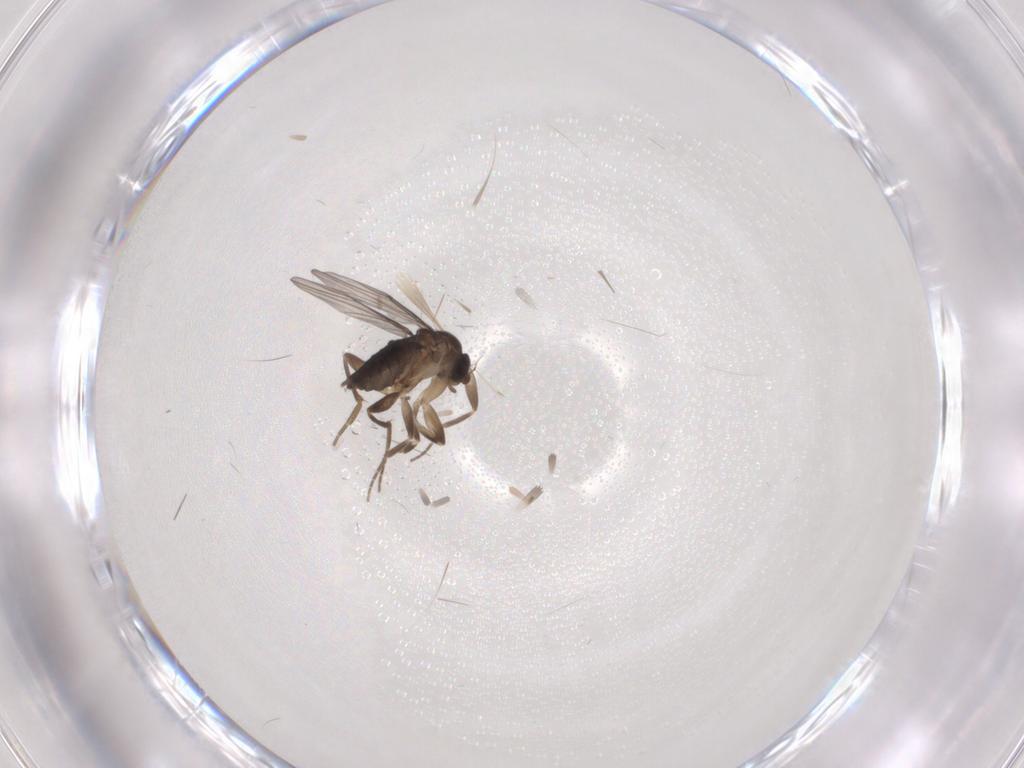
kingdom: Animalia
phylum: Arthropoda
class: Insecta
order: Diptera
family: Phoridae
